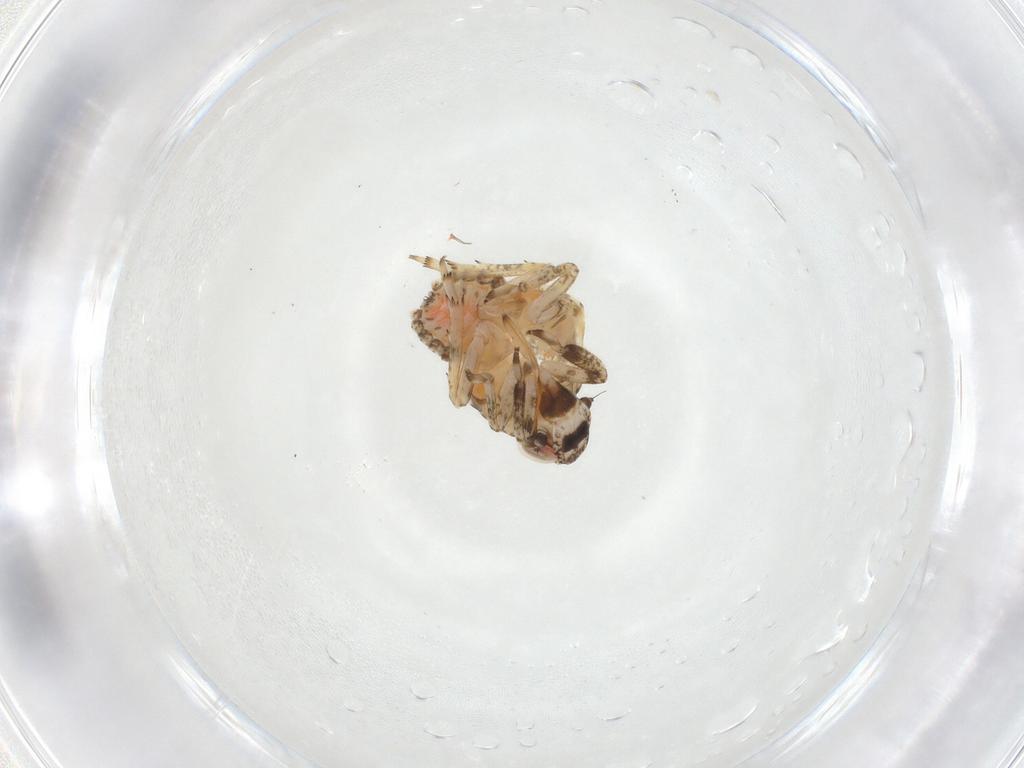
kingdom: Animalia
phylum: Arthropoda
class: Insecta
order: Hemiptera
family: Issidae
